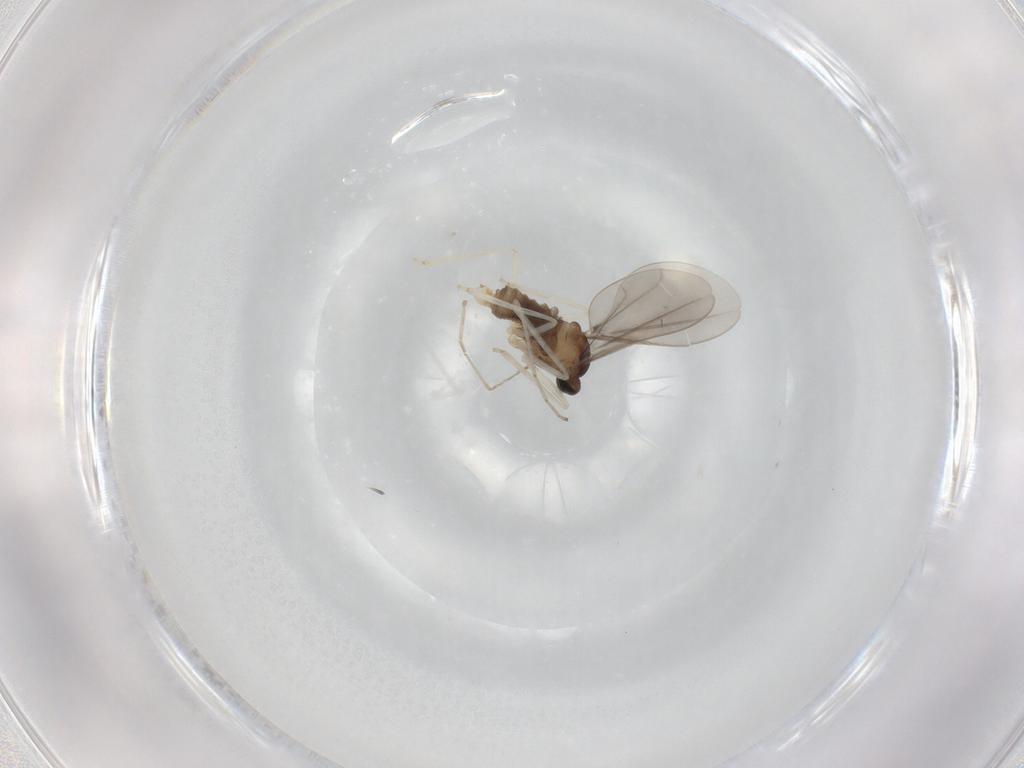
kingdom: Animalia
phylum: Arthropoda
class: Insecta
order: Diptera
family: Cecidomyiidae
